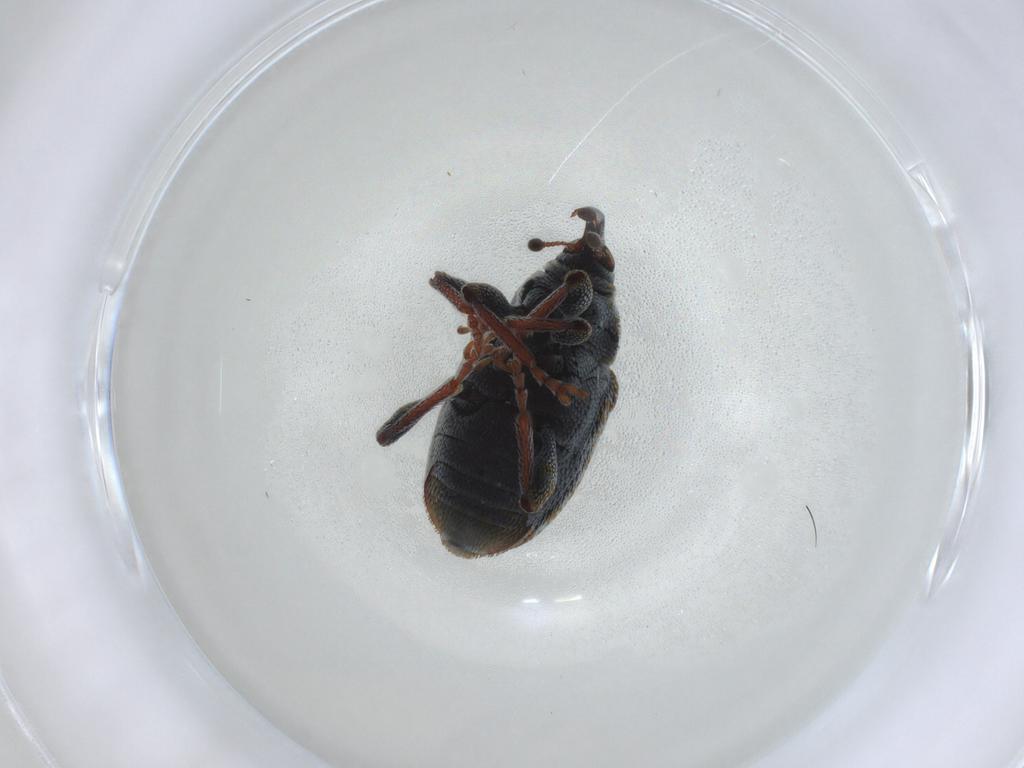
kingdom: Animalia
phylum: Arthropoda
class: Insecta
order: Coleoptera
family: Curculionidae
